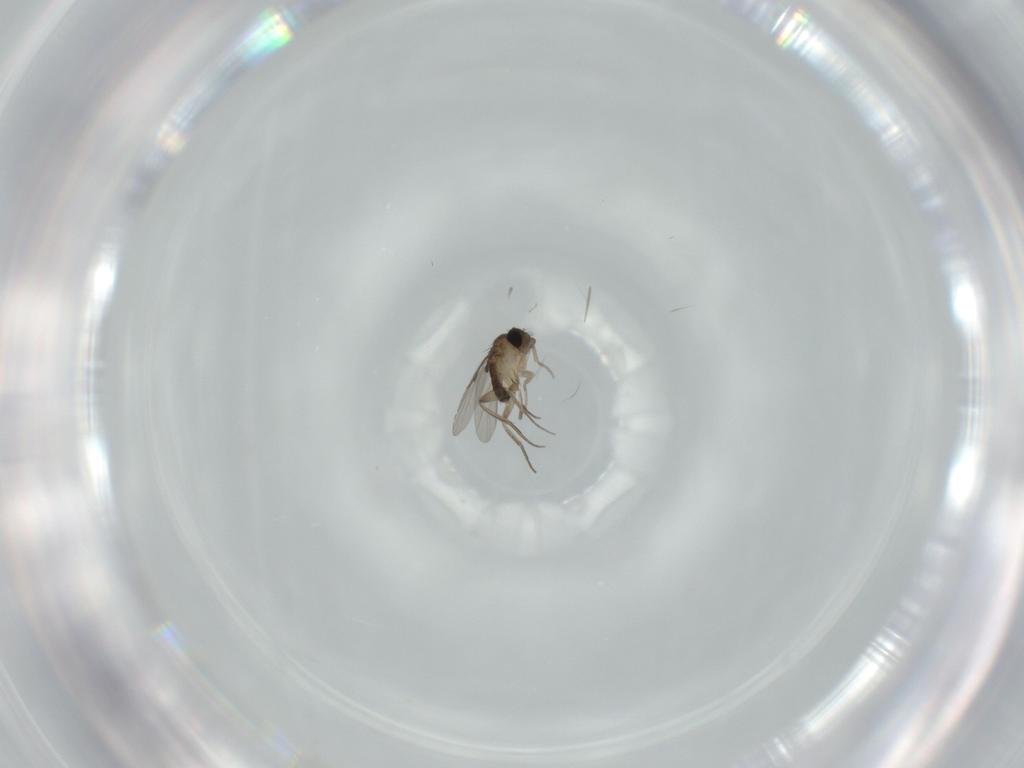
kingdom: Animalia
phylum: Arthropoda
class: Insecta
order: Diptera
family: Phoridae
